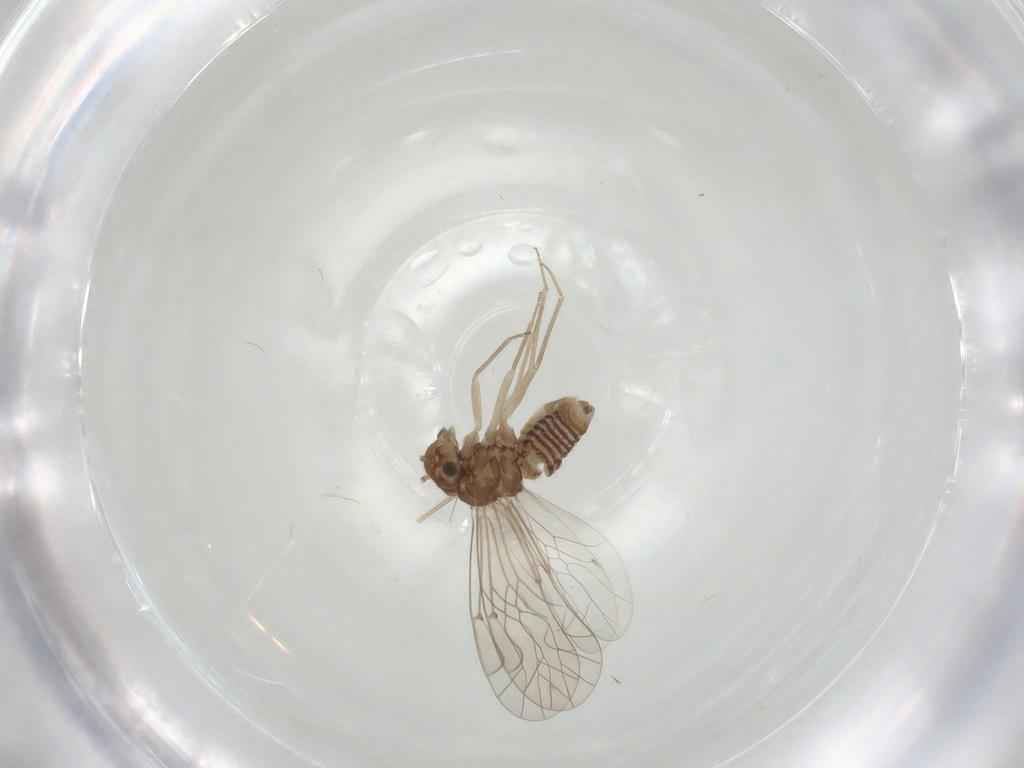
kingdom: Animalia
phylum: Arthropoda
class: Insecta
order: Psocodea
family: Lachesillidae
